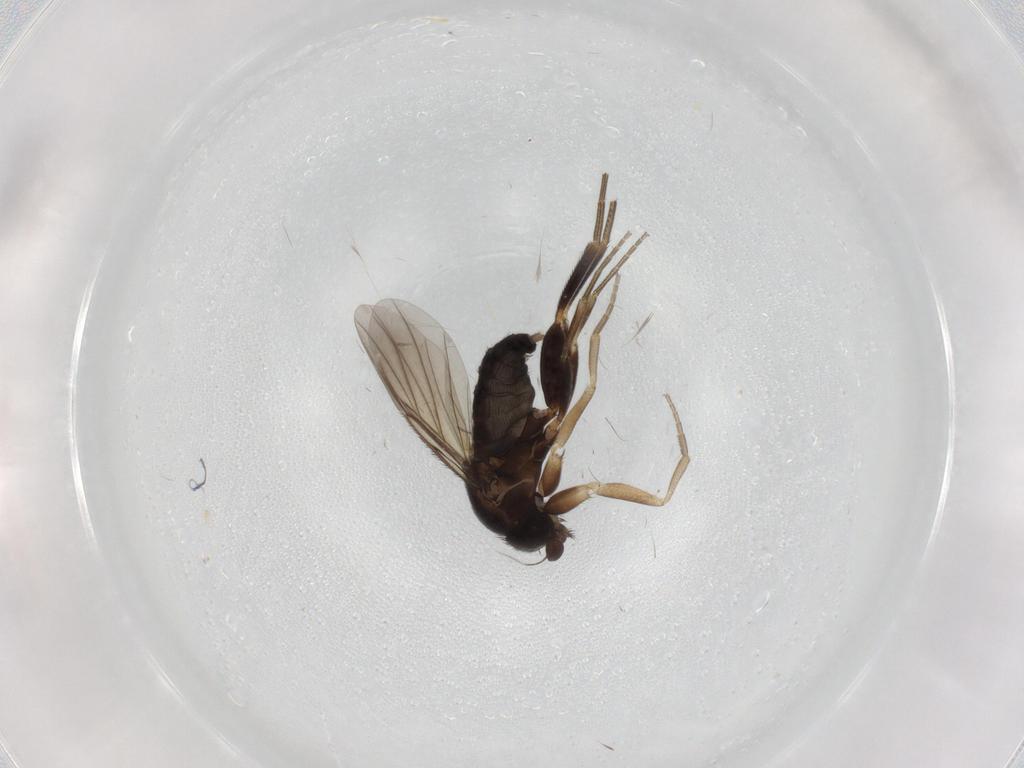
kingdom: Animalia
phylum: Arthropoda
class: Insecta
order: Diptera
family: Phoridae
